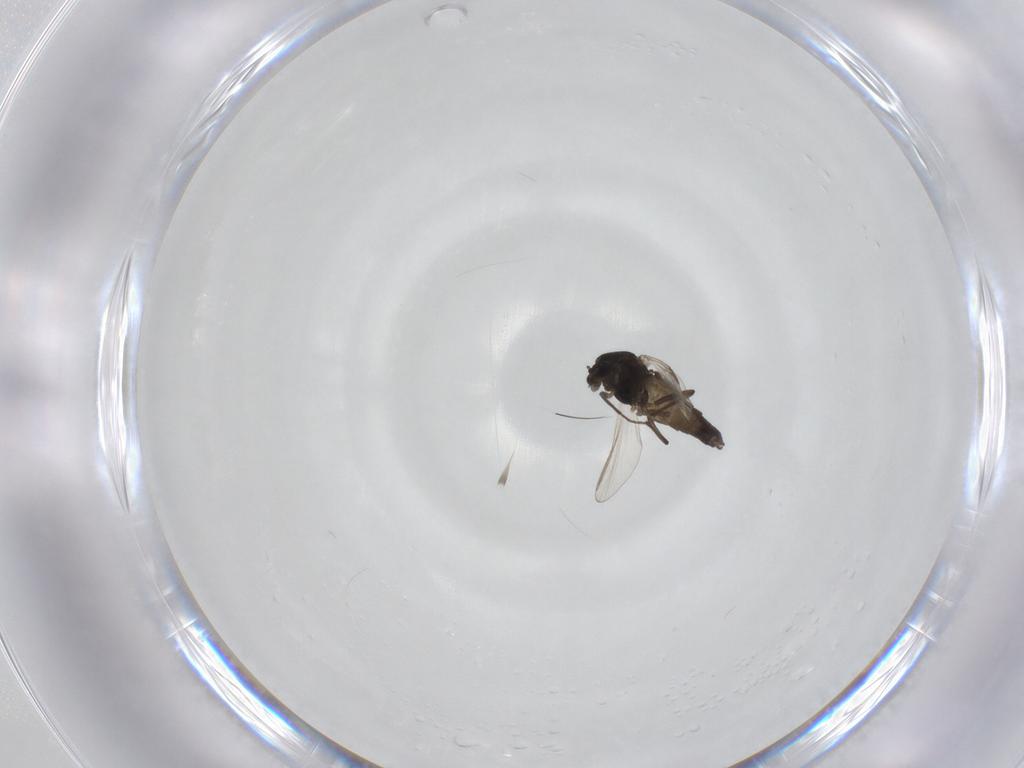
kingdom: Animalia
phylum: Arthropoda
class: Insecta
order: Diptera
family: Chironomidae
